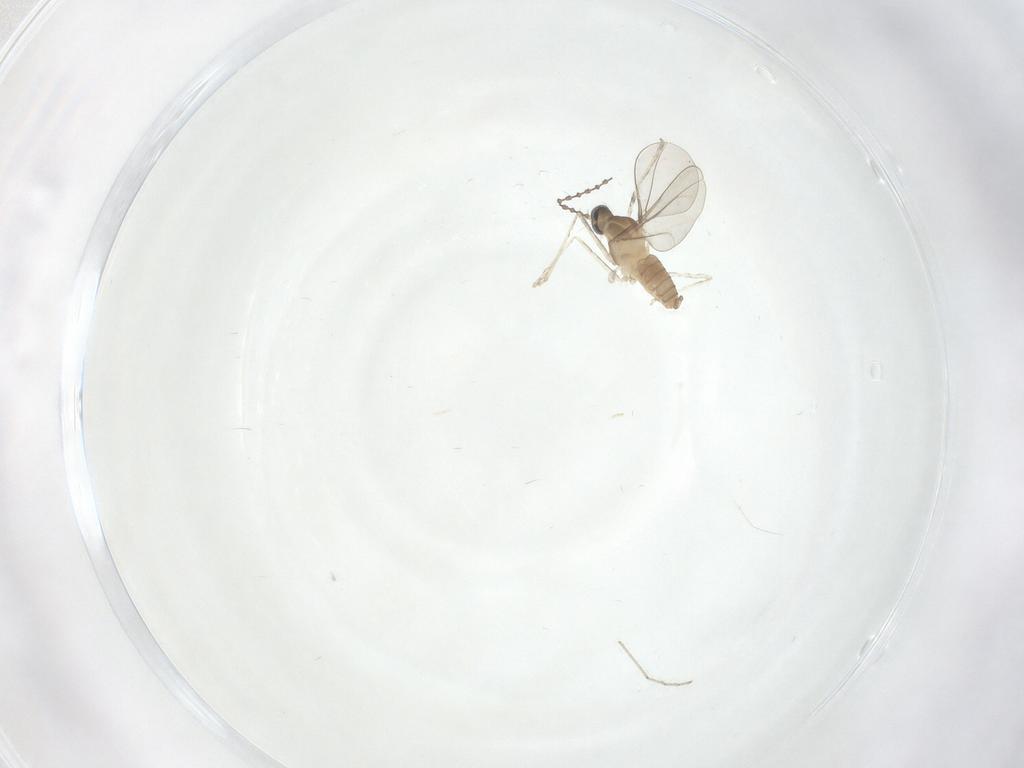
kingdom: Animalia
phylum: Arthropoda
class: Insecta
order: Diptera
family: Cecidomyiidae
